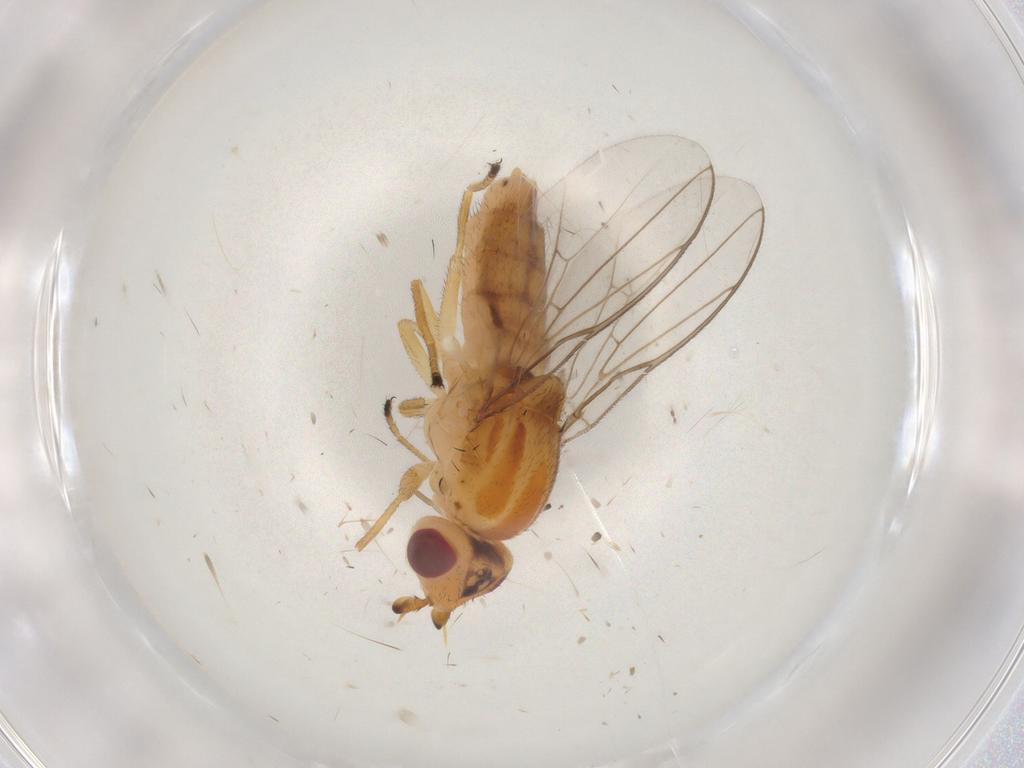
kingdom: Animalia
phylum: Arthropoda
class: Insecta
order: Diptera
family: Chloropidae
